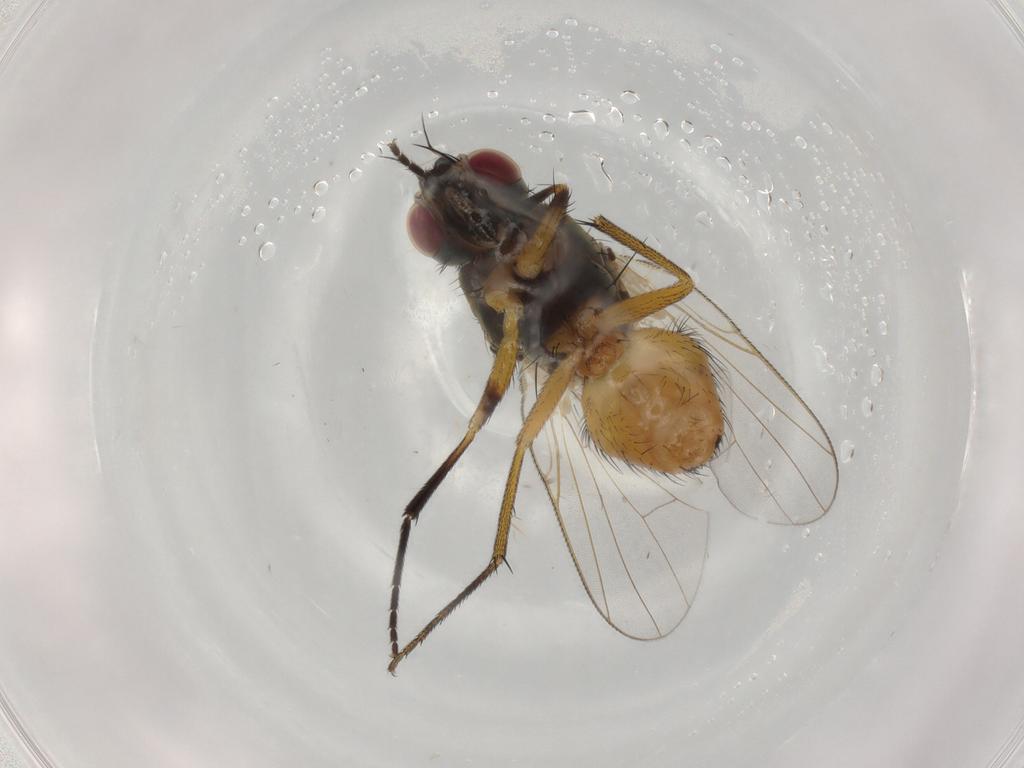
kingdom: Animalia
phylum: Arthropoda
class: Insecta
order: Diptera
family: Muscidae
